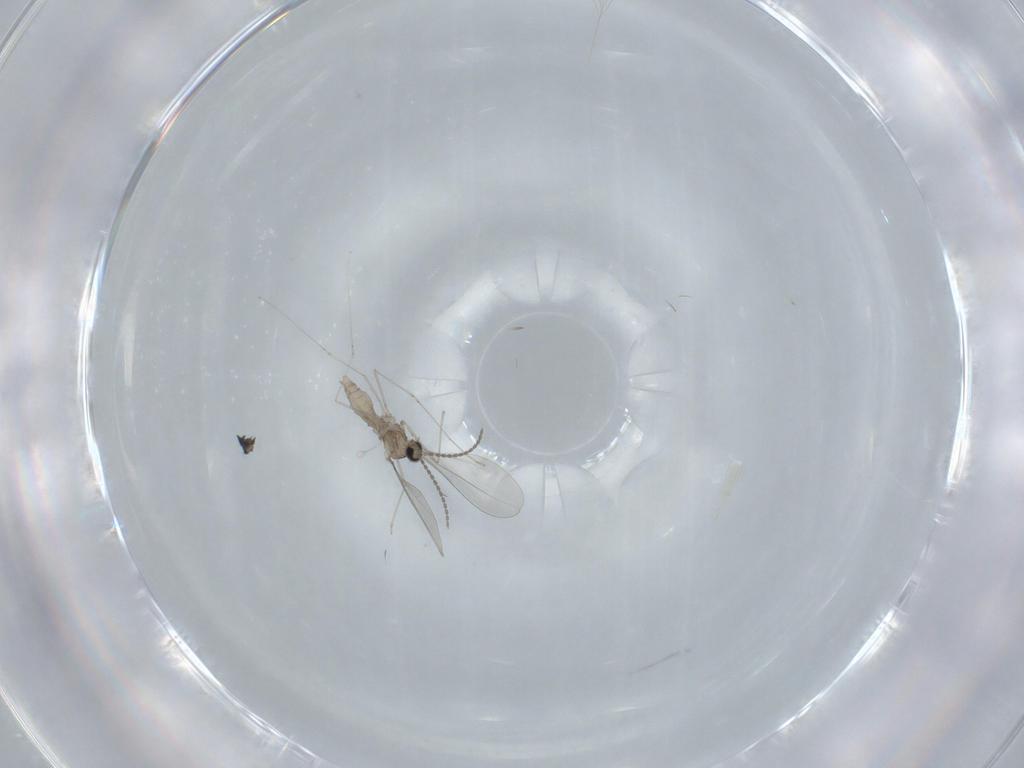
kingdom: Animalia
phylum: Arthropoda
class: Insecta
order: Diptera
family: Cecidomyiidae
